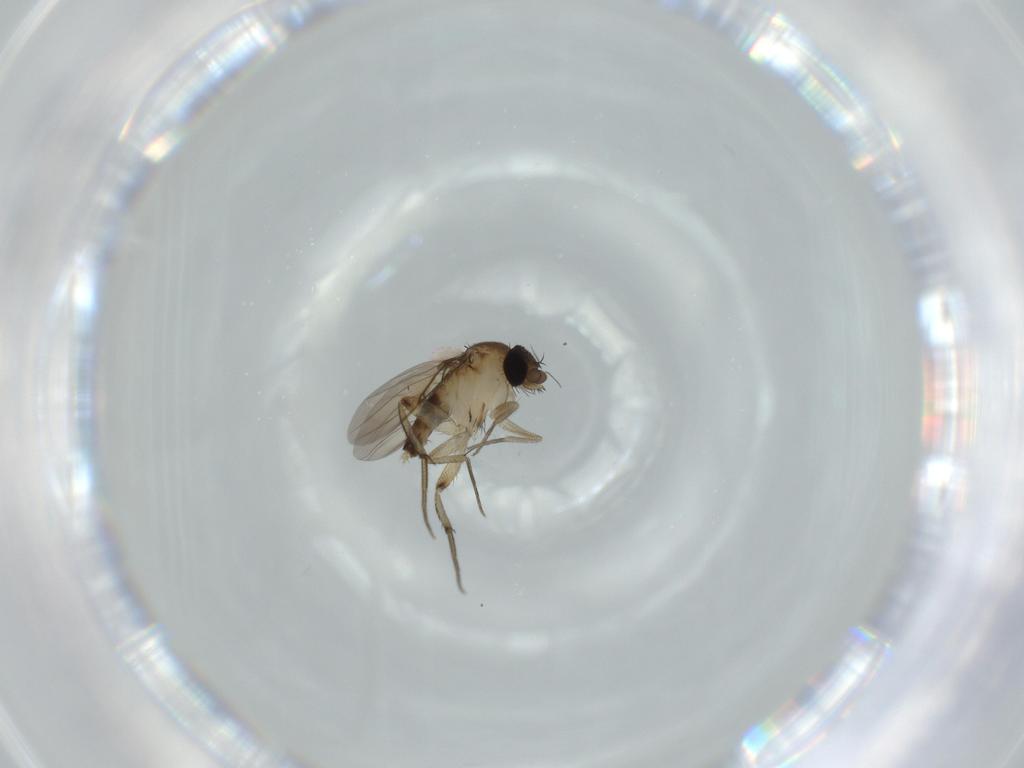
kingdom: Animalia
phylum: Arthropoda
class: Insecta
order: Diptera
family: Phoridae
